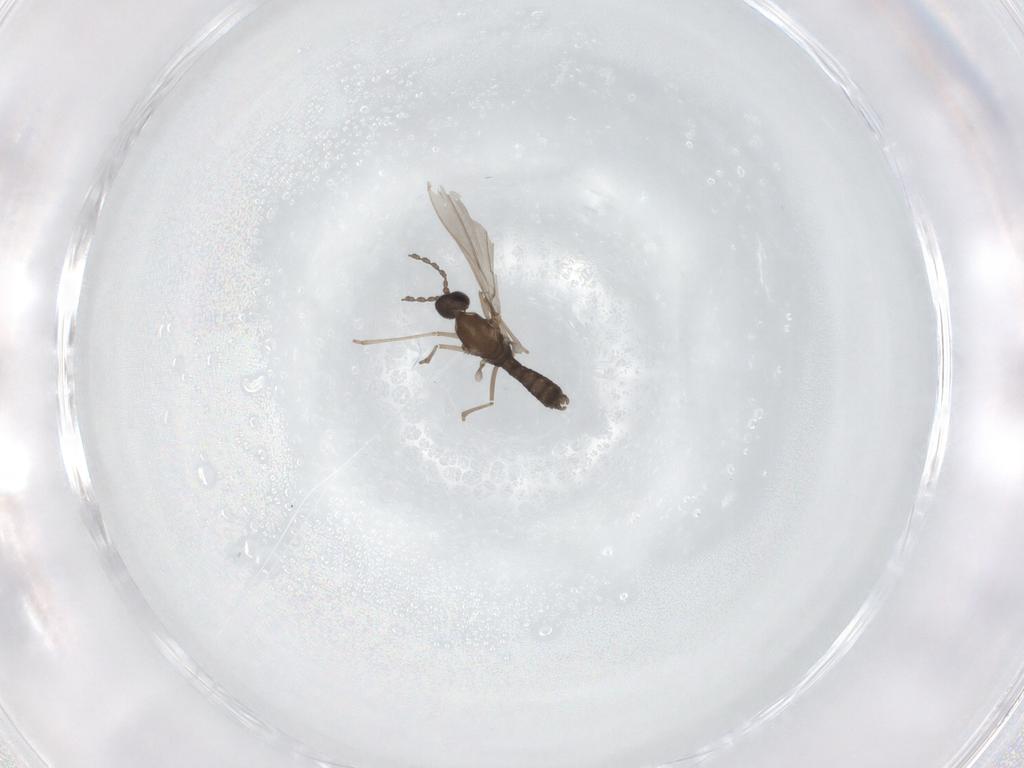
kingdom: Animalia
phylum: Arthropoda
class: Insecta
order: Diptera
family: Cecidomyiidae
